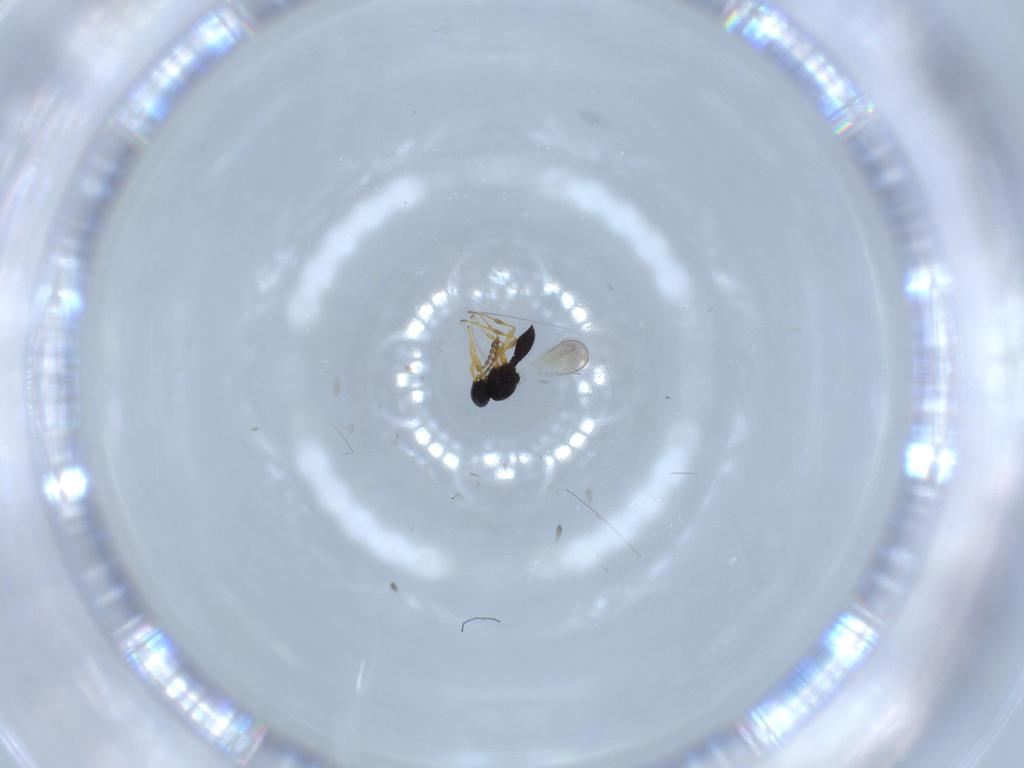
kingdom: Animalia
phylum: Arthropoda
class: Insecta
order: Hymenoptera
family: Platygastridae
